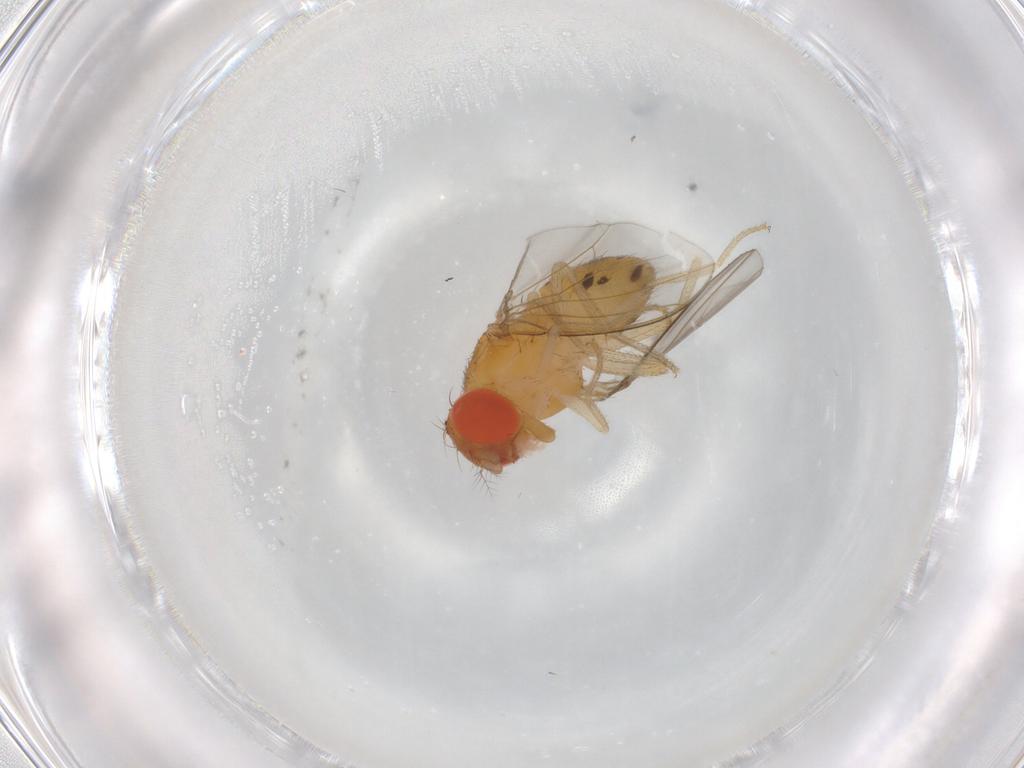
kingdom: Animalia
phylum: Arthropoda
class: Insecta
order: Diptera
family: Drosophilidae
